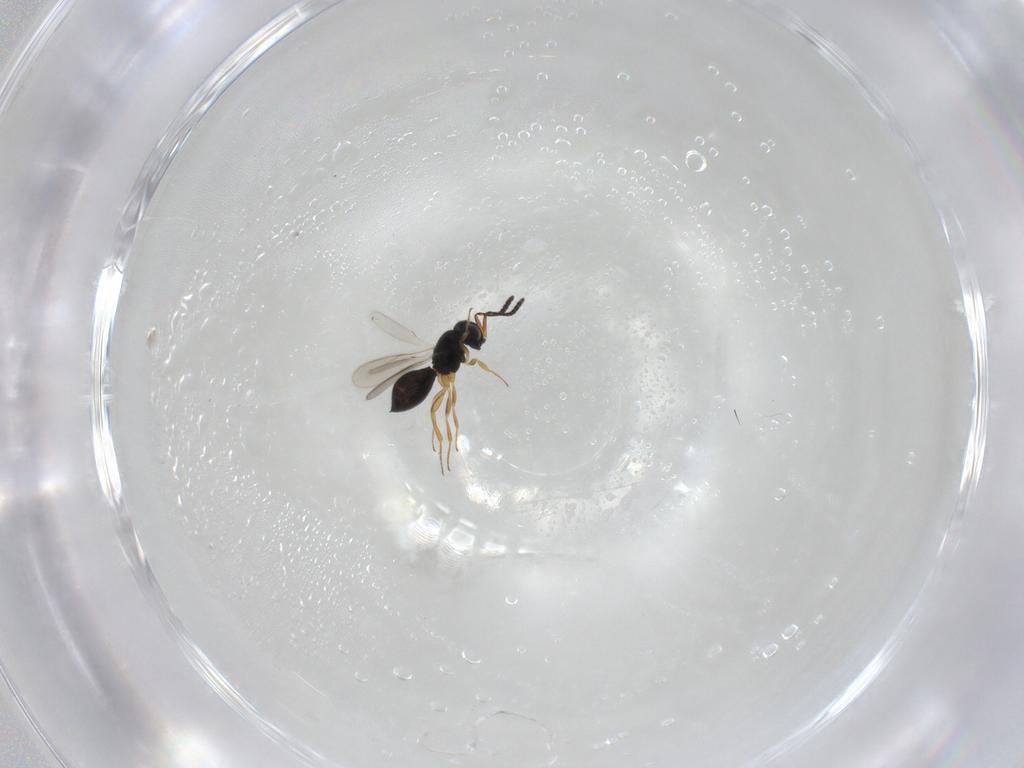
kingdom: Animalia
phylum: Arthropoda
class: Insecta
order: Hymenoptera
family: Scelionidae
